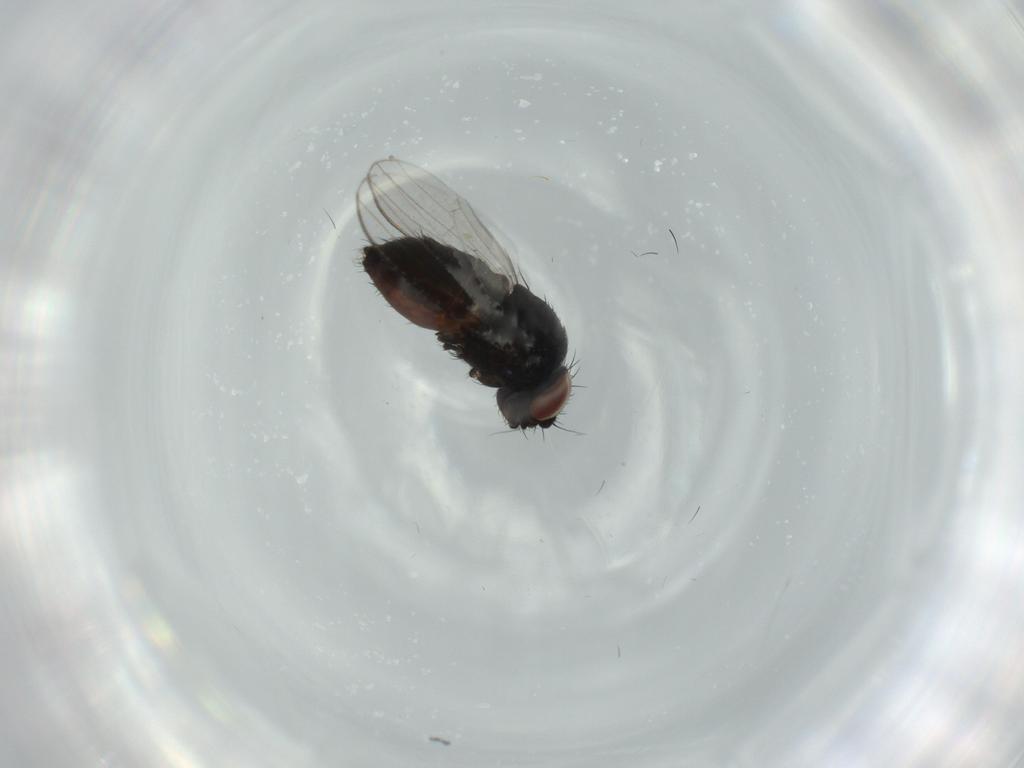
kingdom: Animalia
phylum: Arthropoda
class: Insecta
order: Diptera
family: Milichiidae
